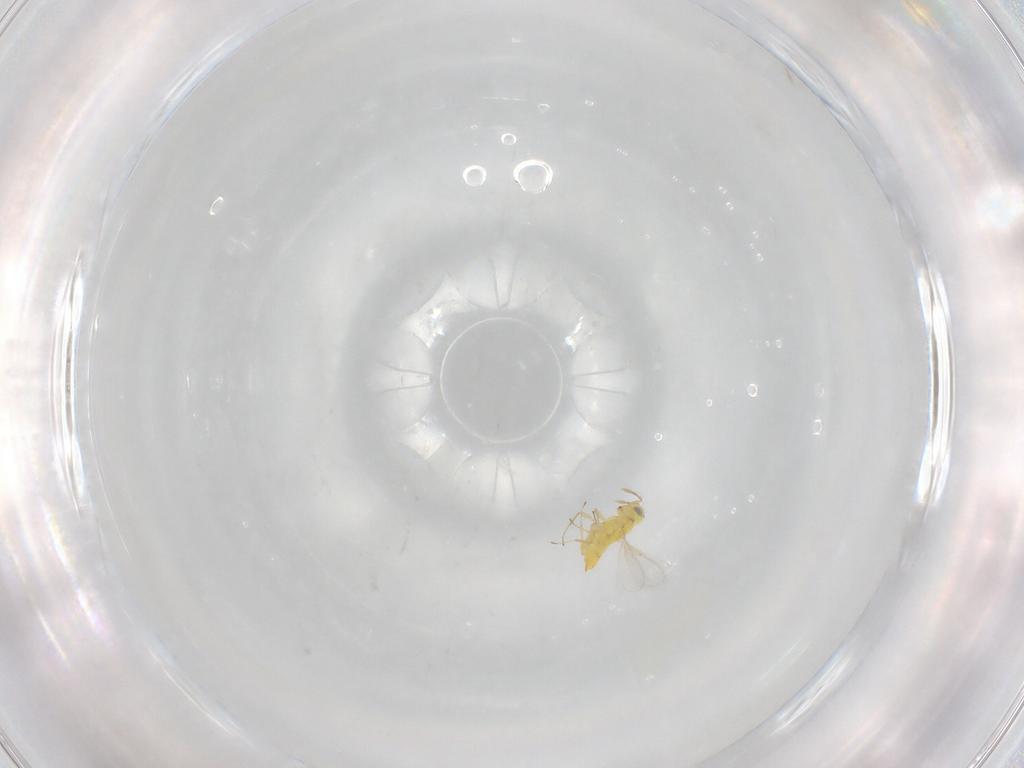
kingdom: Animalia
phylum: Arthropoda
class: Insecta
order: Hymenoptera
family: Aphelinidae
